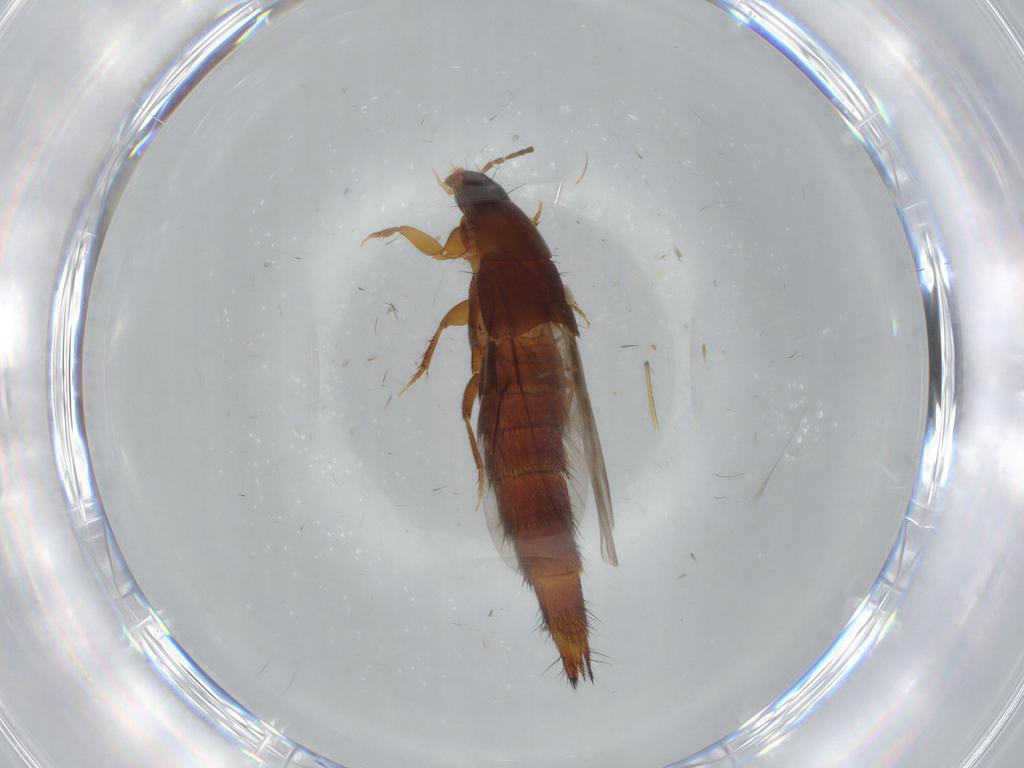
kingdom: Animalia
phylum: Arthropoda
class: Insecta
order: Coleoptera
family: Staphylinidae
